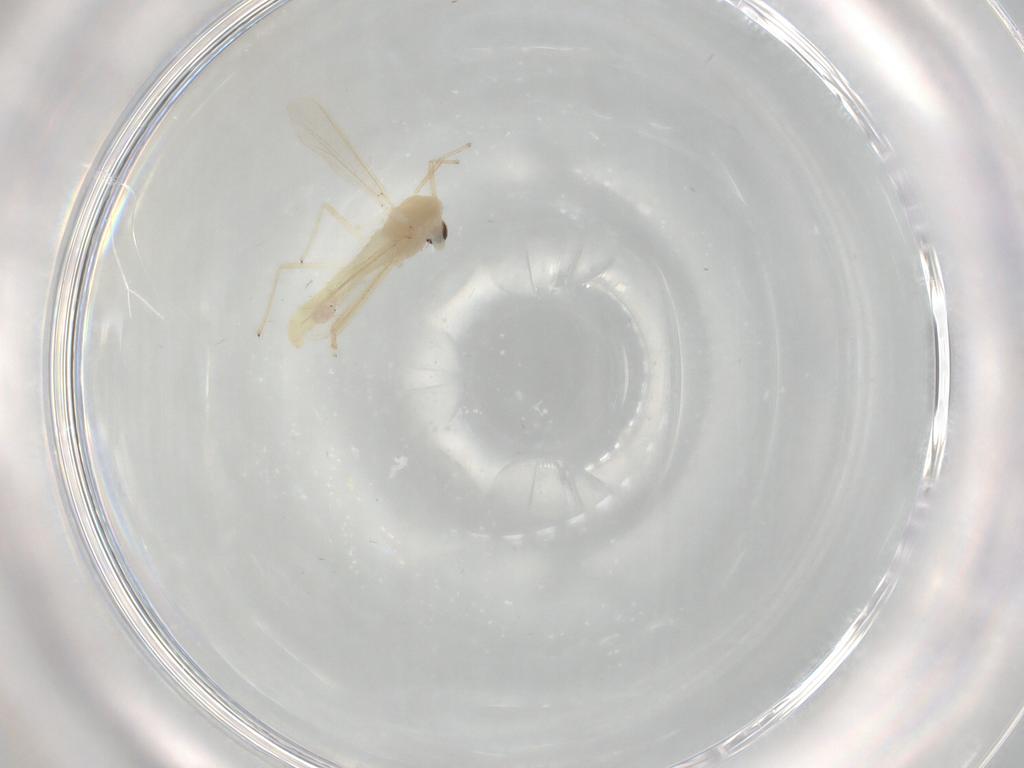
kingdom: Animalia
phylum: Arthropoda
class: Insecta
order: Diptera
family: Chironomidae
